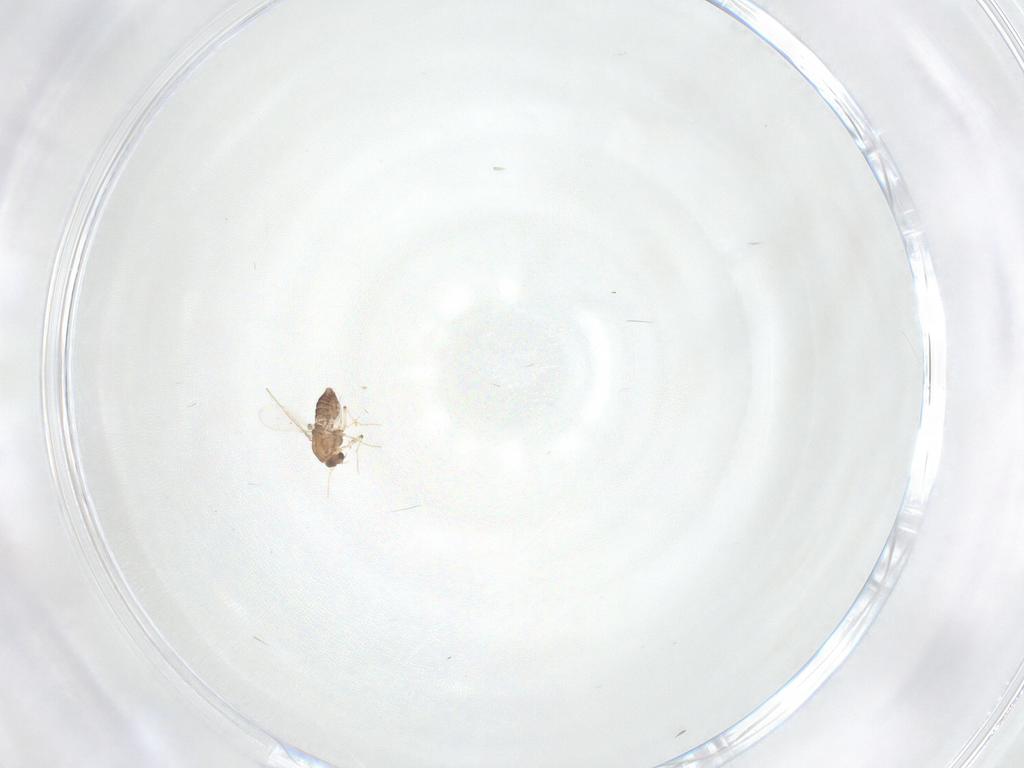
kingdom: Animalia
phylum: Arthropoda
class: Insecta
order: Diptera
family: Chironomidae
